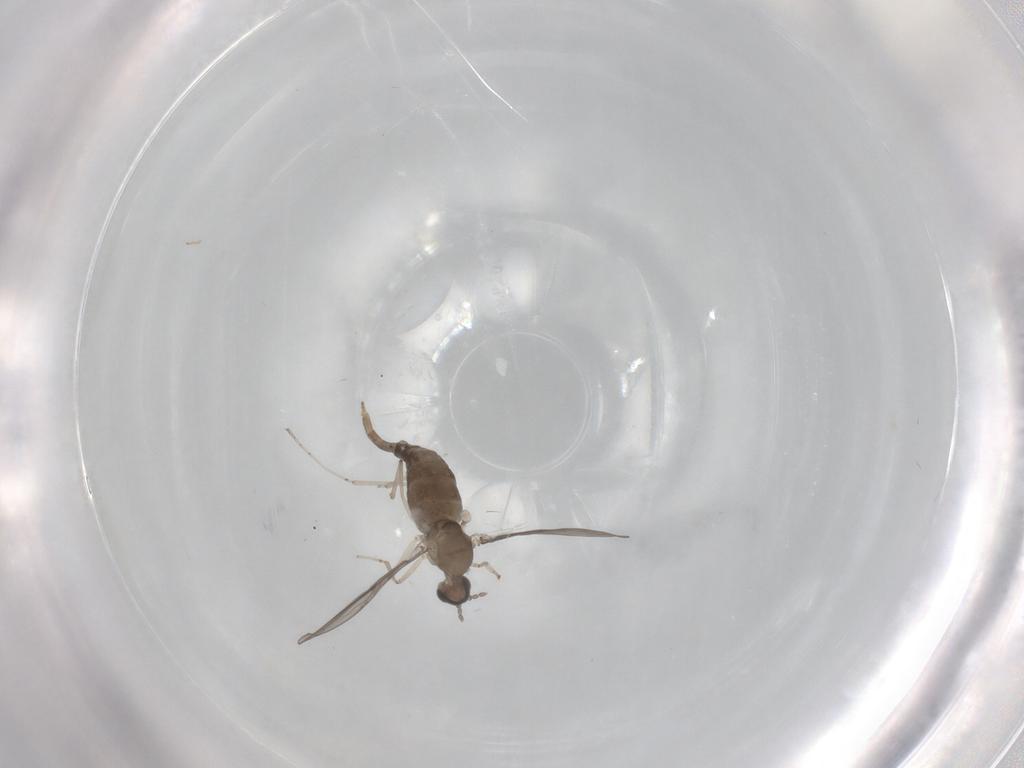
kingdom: Animalia
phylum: Arthropoda
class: Insecta
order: Diptera
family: Cecidomyiidae
